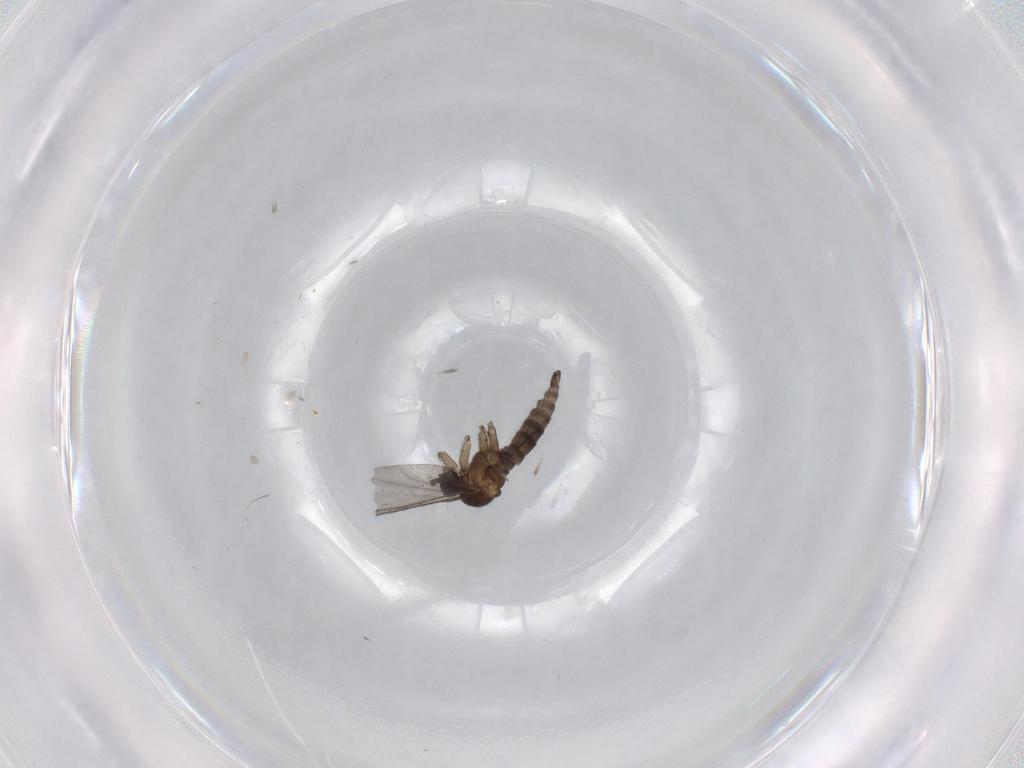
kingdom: Animalia
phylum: Arthropoda
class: Insecta
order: Diptera
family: Sciaridae
